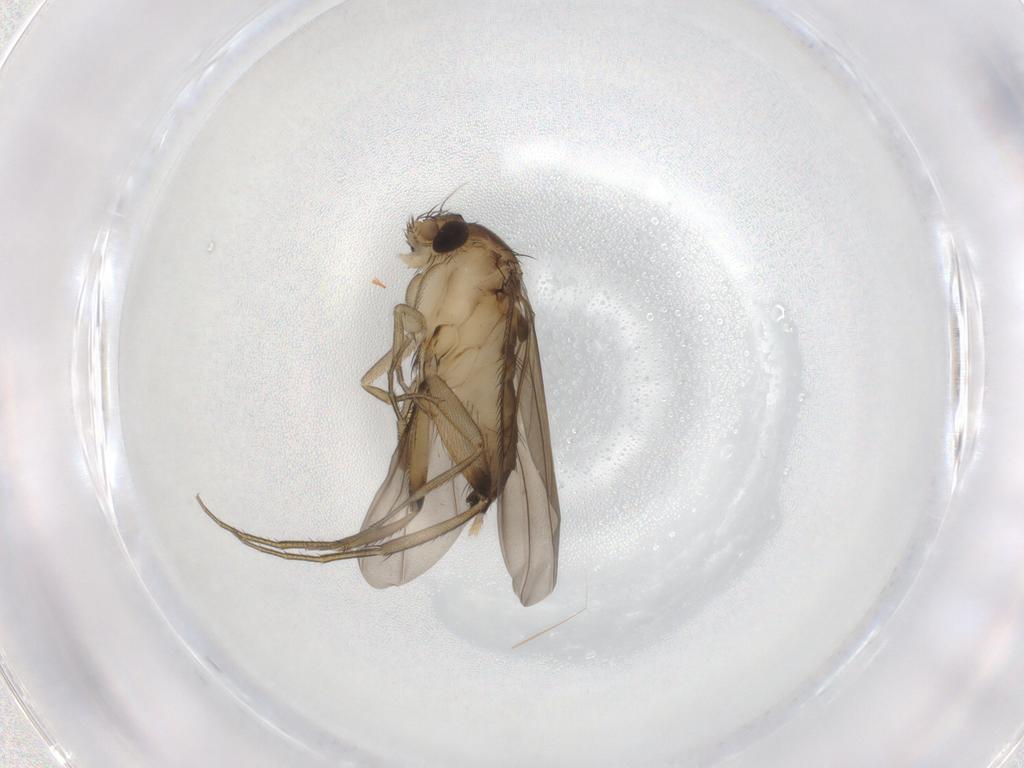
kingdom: Animalia
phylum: Arthropoda
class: Insecta
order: Diptera
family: Phoridae
